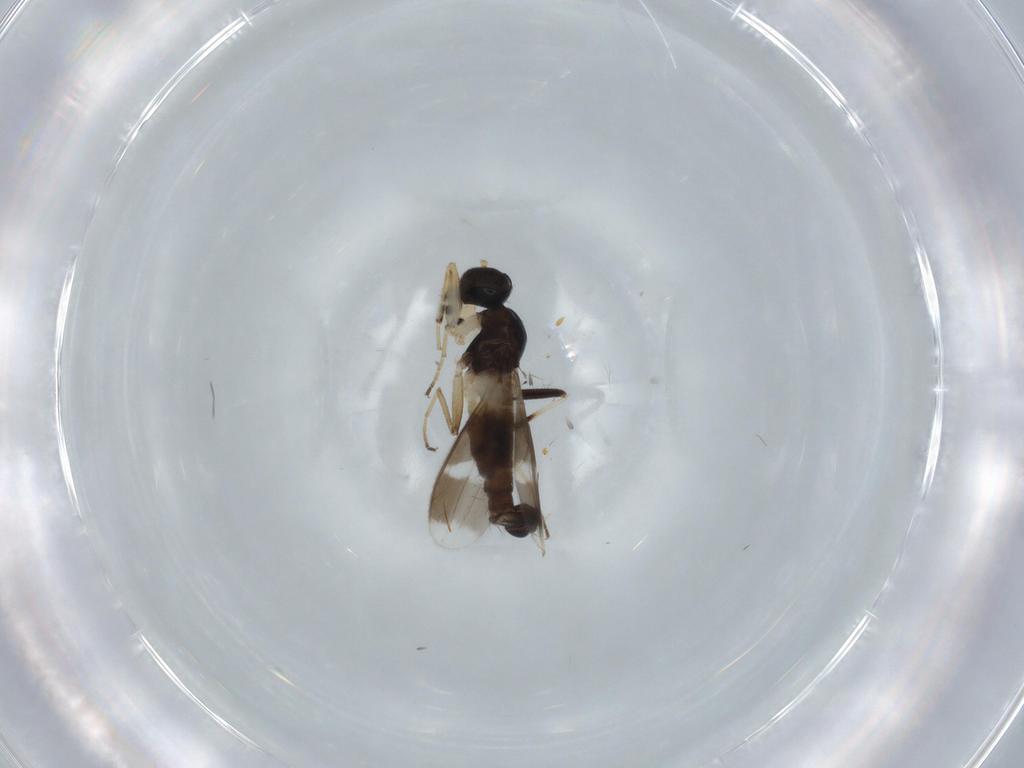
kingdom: Animalia
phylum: Arthropoda
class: Insecta
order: Diptera
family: Hybotidae
